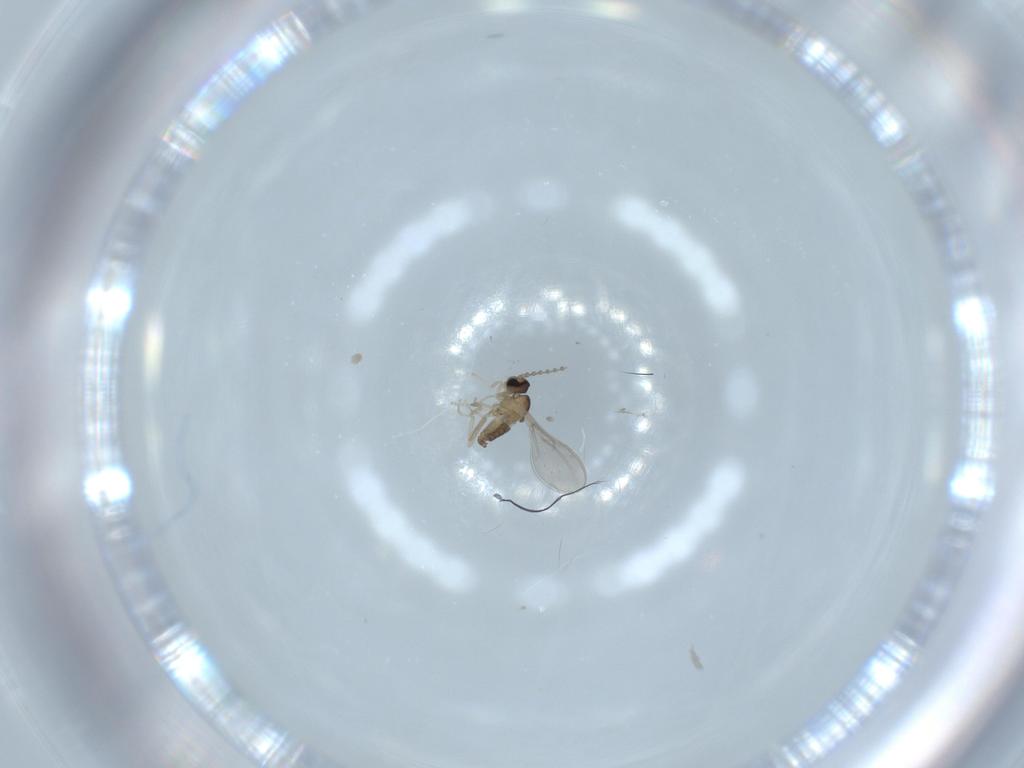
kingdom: Animalia
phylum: Arthropoda
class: Insecta
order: Diptera
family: Cecidomyiidae
